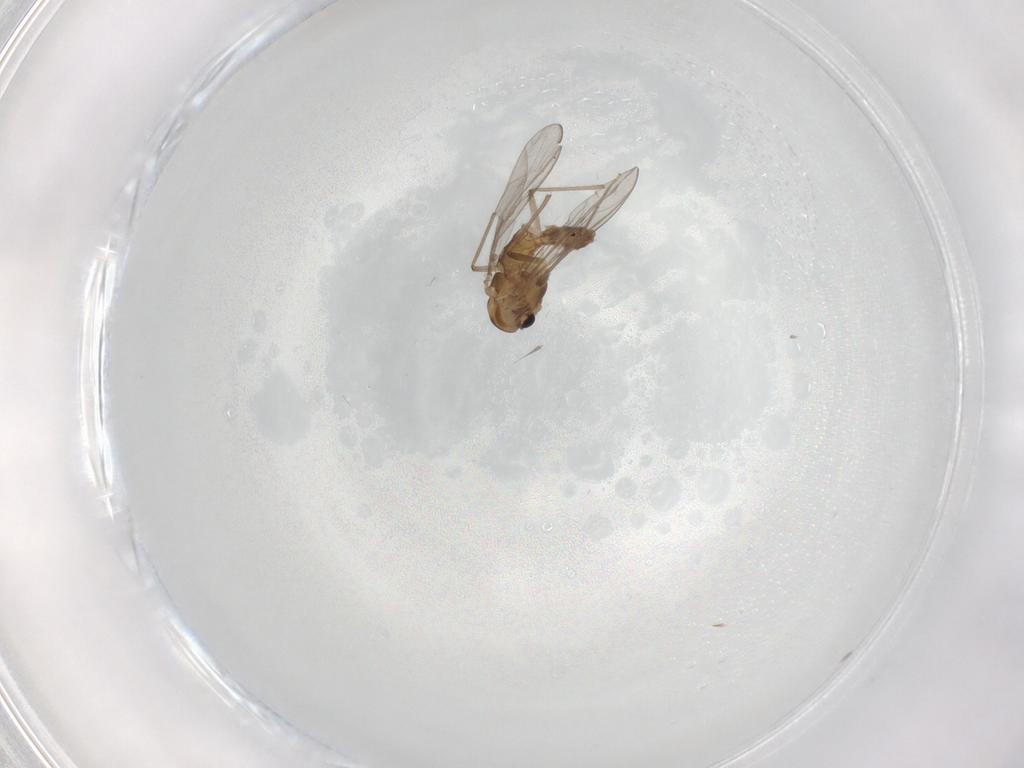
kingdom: Animalia
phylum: Arthropoda
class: Insecta
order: Diptera
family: Chironomidae
